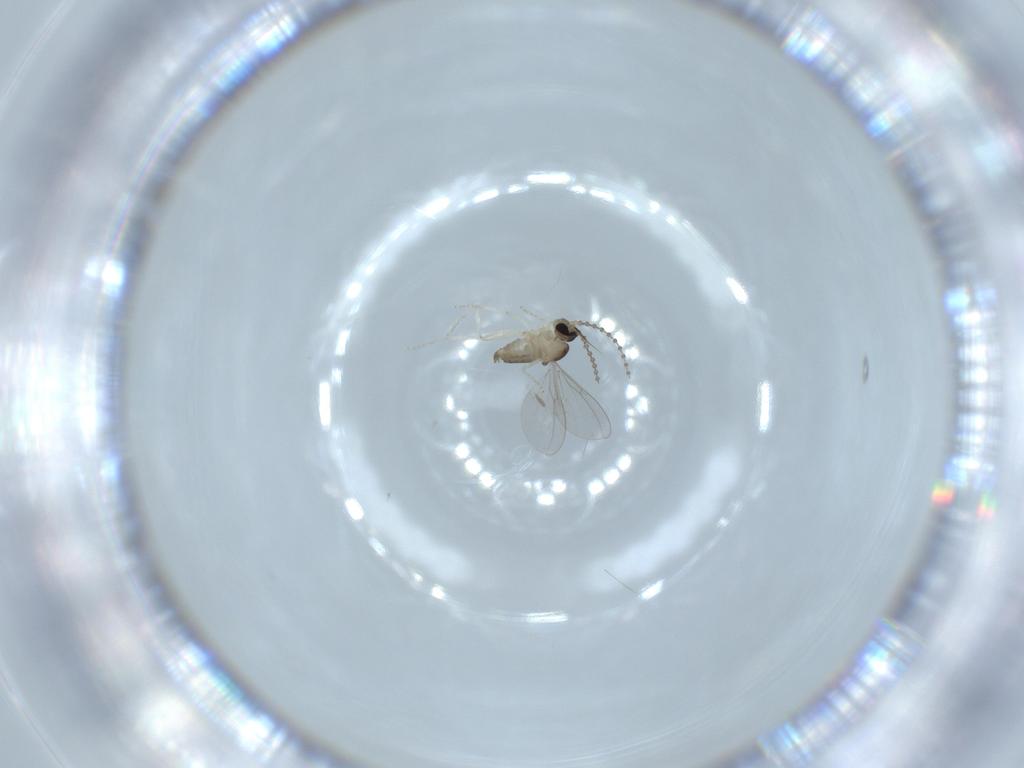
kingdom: Animalia
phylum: Arthropoda
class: Insecta
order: Diptera
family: Cecidomyiidae
